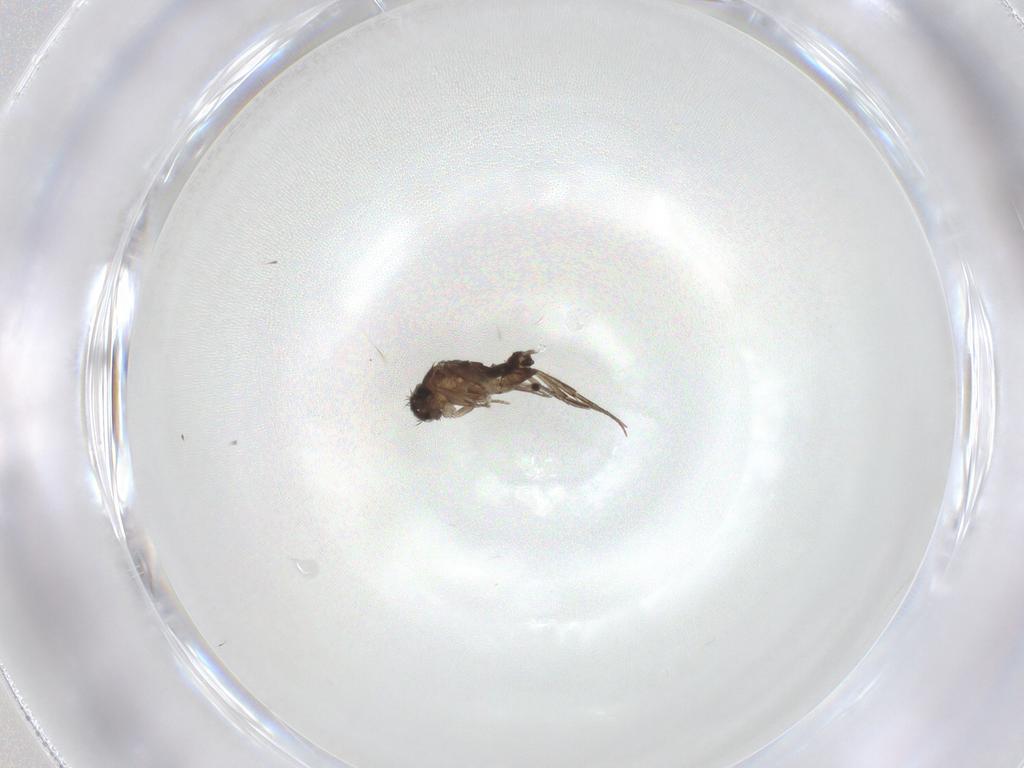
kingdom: Animalia
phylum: Arthropoda
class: Insecta
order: Diptera
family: Phoridae
